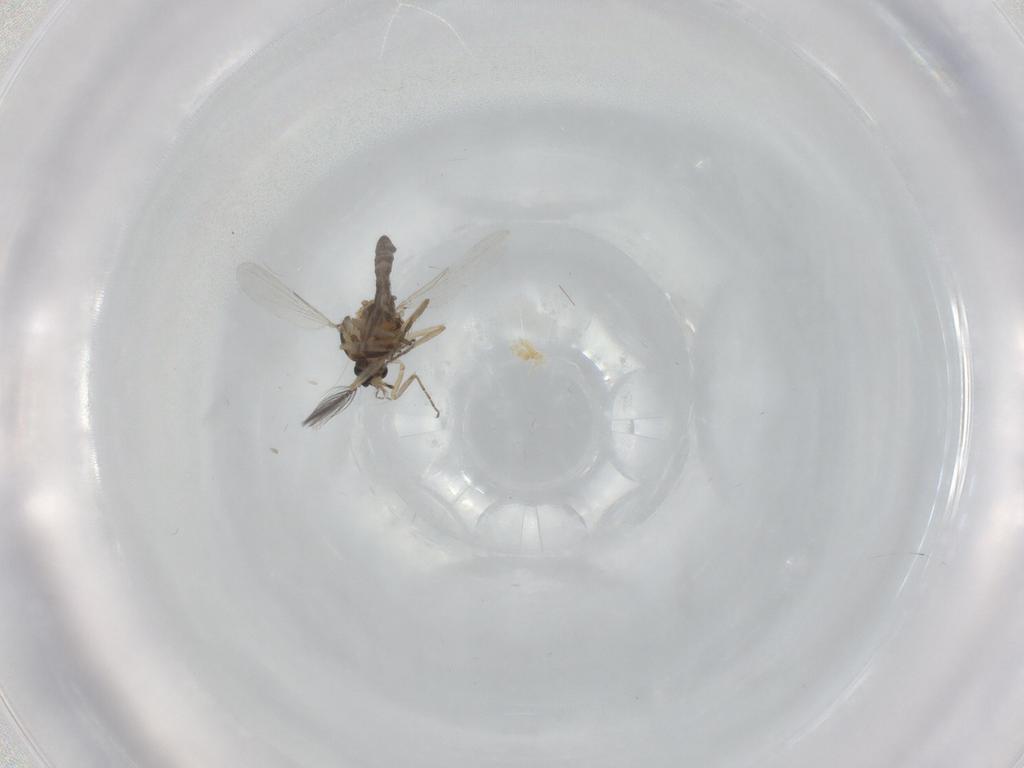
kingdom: Animalia
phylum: Arthropoda
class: Insecta
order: Diptera
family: Ceratopogonidae
